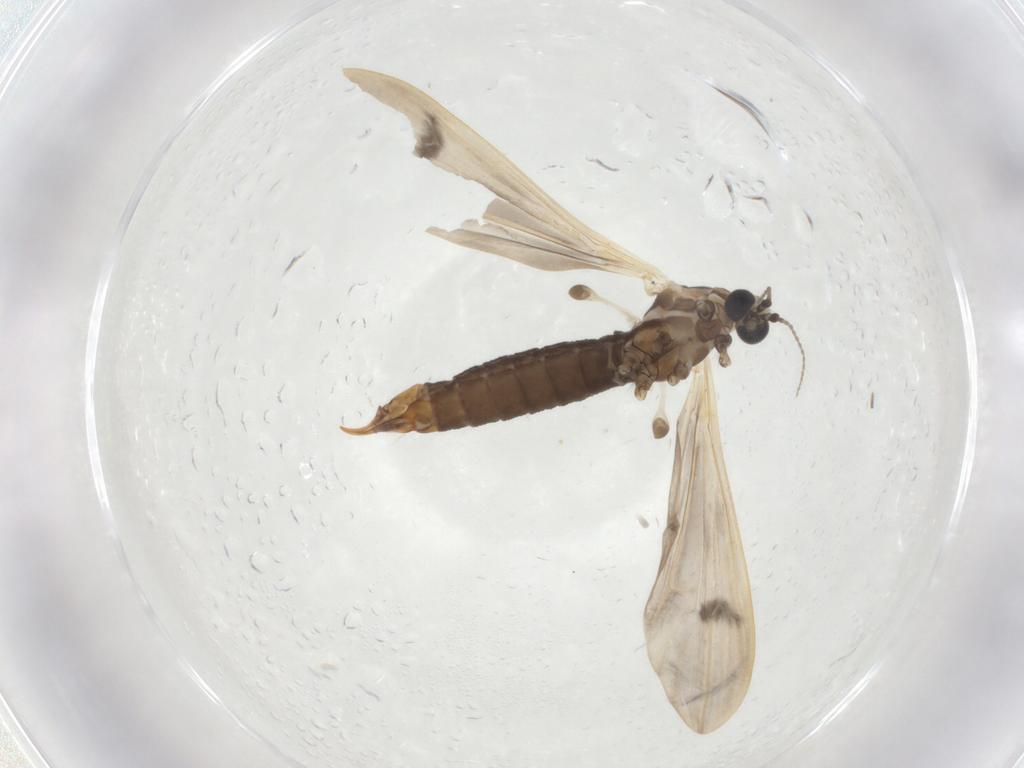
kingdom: Animalia
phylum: Arthropoda
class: Insecta
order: Diptera
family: Limoniidae
